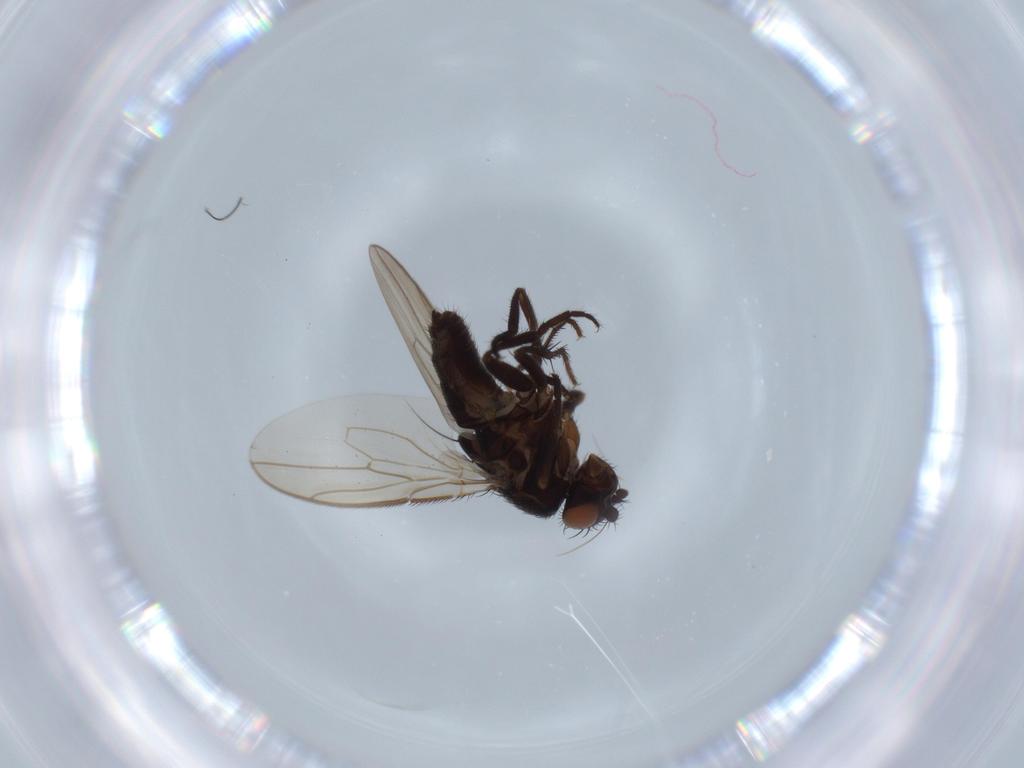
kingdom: Animalia
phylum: Arthropoda
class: Insecta
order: Diptera
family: Sphaeroceridae
